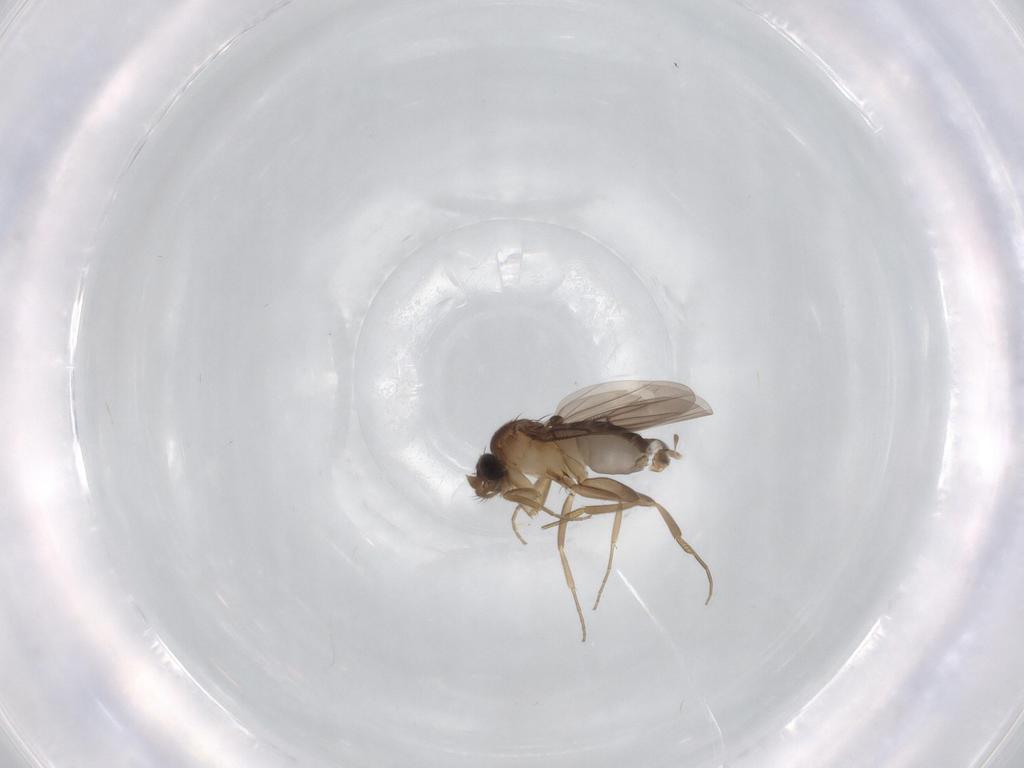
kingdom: Animalia
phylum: Arthropoda
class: Insecta
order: Diptera
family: Phoridae
